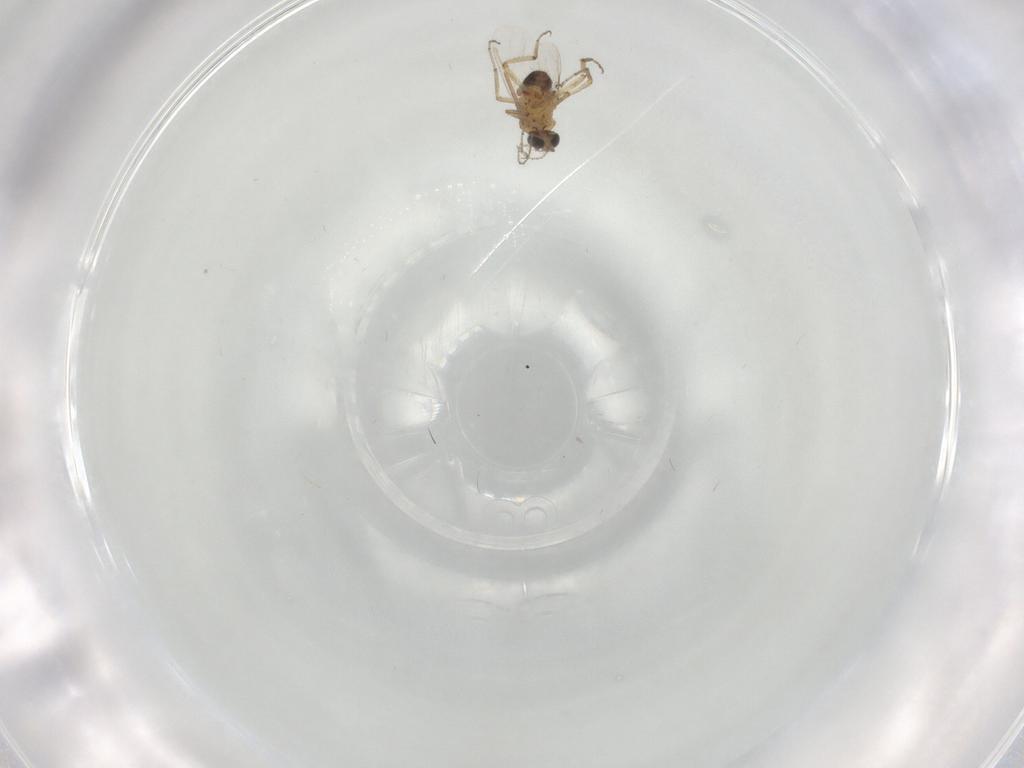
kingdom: Animalia
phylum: Arthropoda
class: Insecta
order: Diptera
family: Ceratopogonidae
